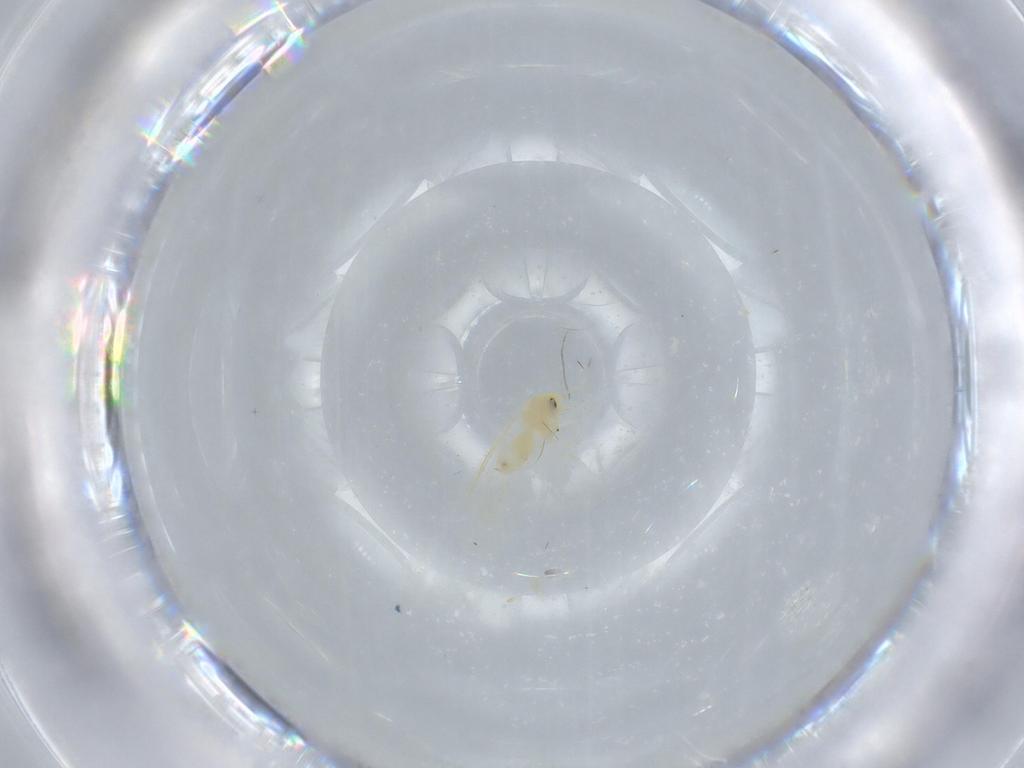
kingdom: Animalia
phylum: Arthropoda
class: Insecta
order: Hemiptera
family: Aleyrodidae
